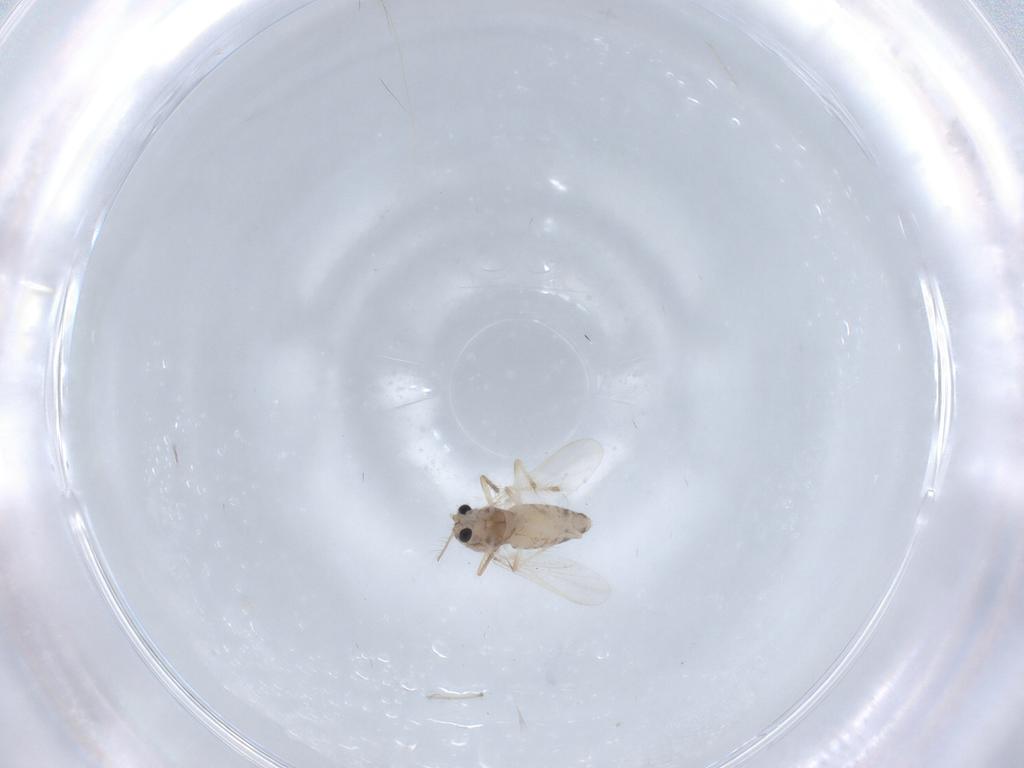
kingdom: Animalia
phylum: Arthropoda
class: Insecta
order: Diptera
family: Chironomidae
